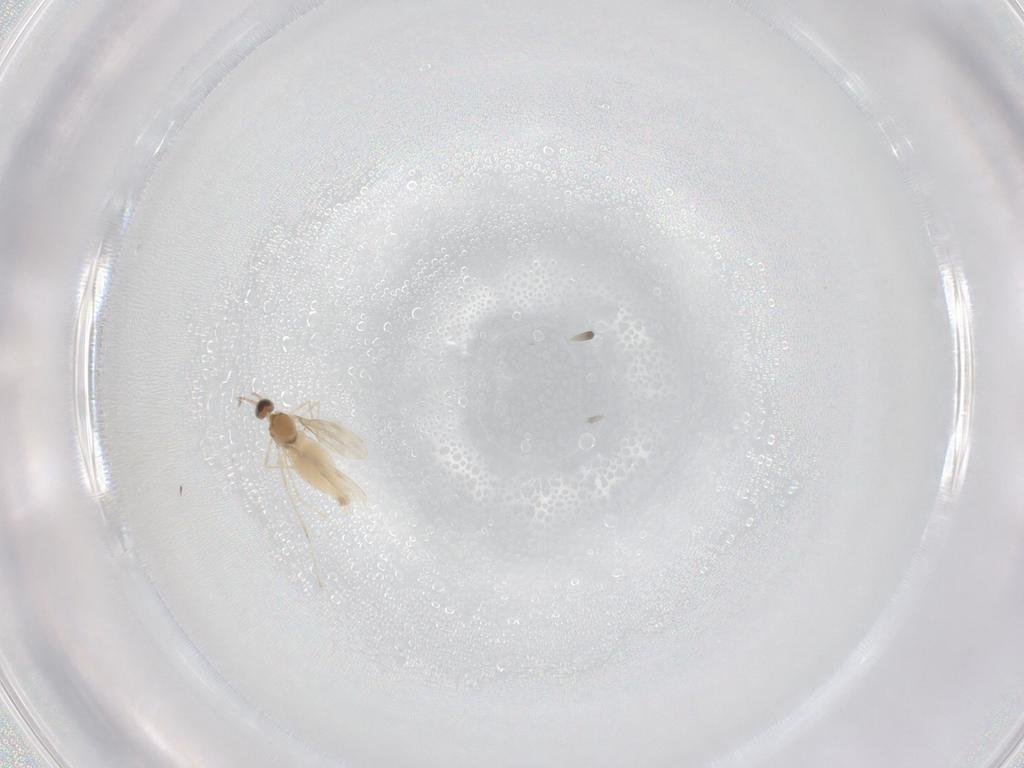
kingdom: Animalia
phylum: Arthropoda
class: Insecta
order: Diptera
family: Cecidomyiidae
